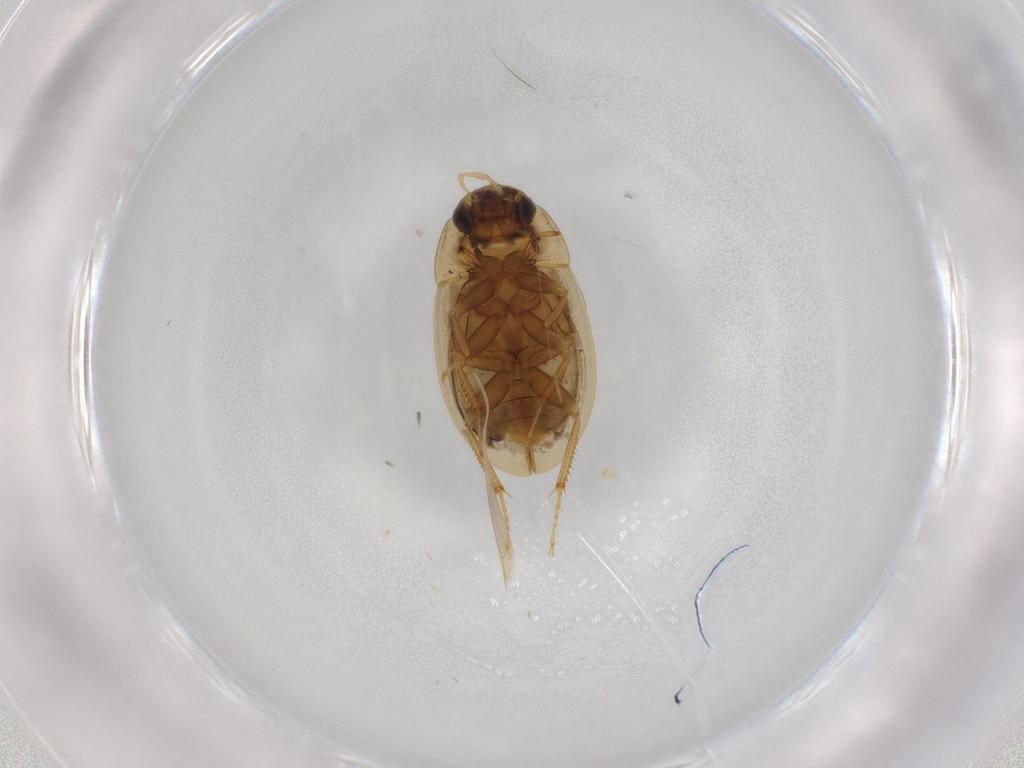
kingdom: Animalia
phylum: Arthropoda
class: Insecta
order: Coleoptera
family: Hydrophilidae
